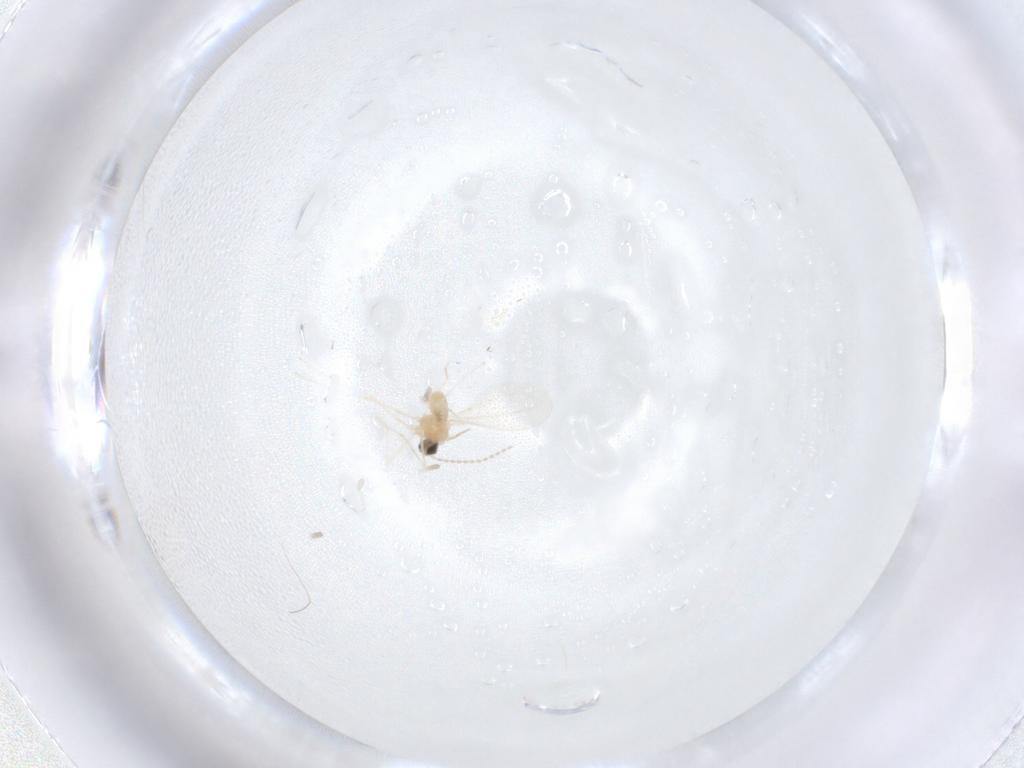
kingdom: Animalia
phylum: Arthropoda
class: Insecta
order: Diptera
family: Cecidomyiidae
